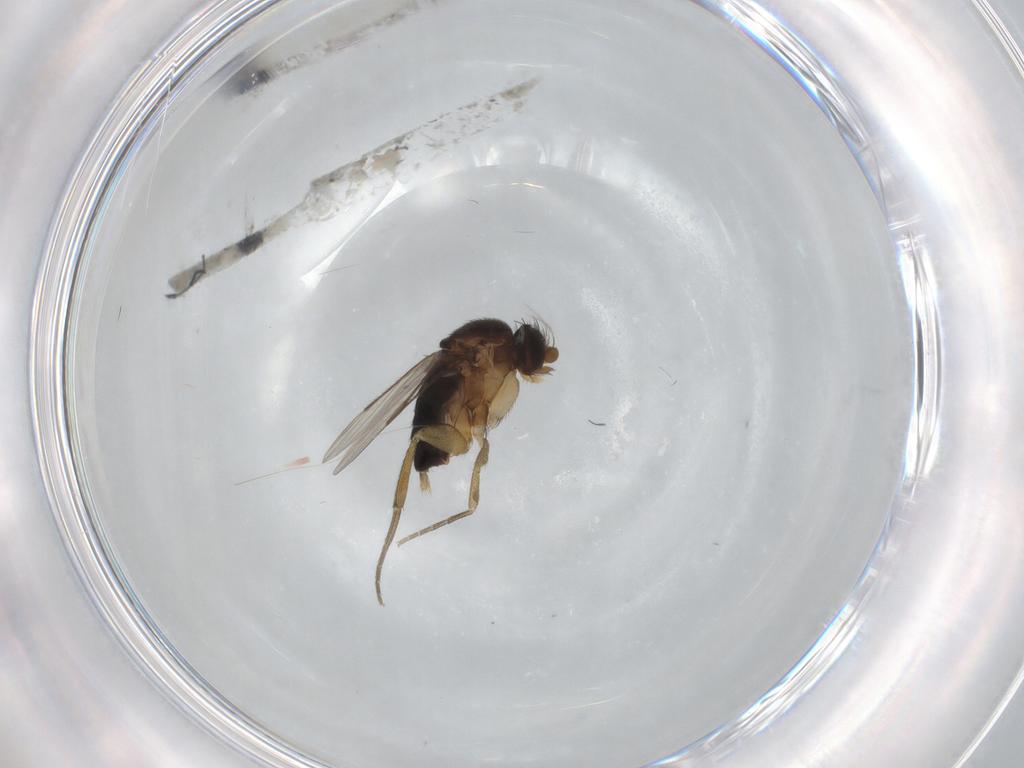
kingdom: Animalia
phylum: Arthropoda
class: Insecta
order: Diptera
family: Phoridae
